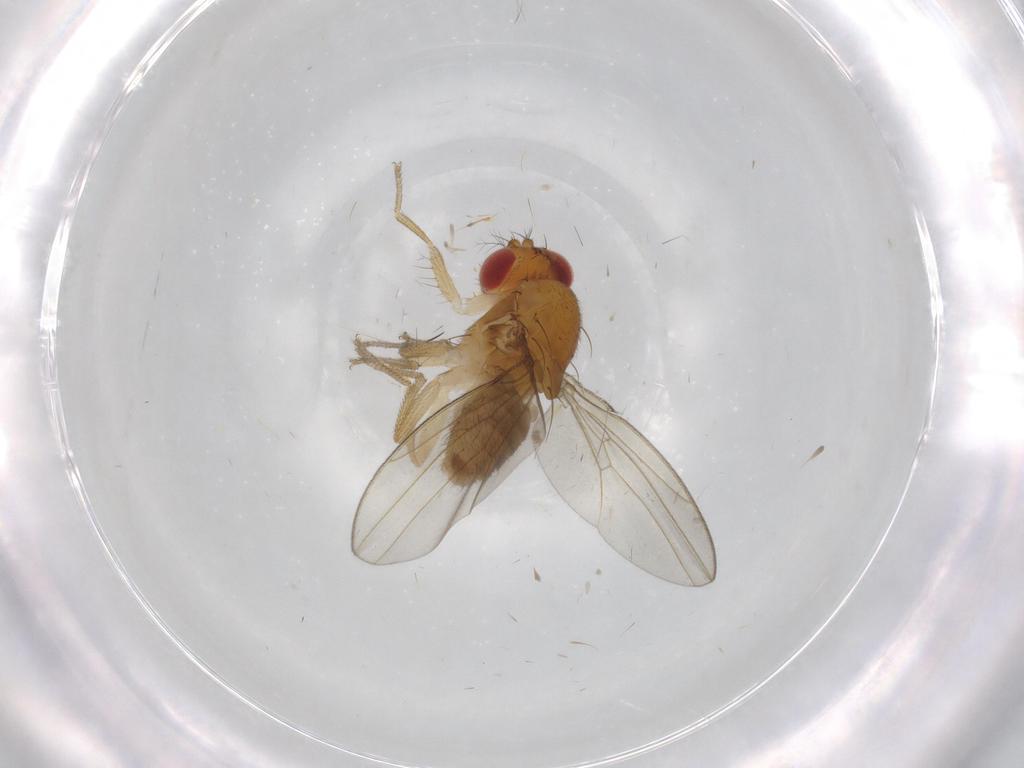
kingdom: Animalia
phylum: Arthropoda
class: Insecta
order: Diptera
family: Drosophilidae
